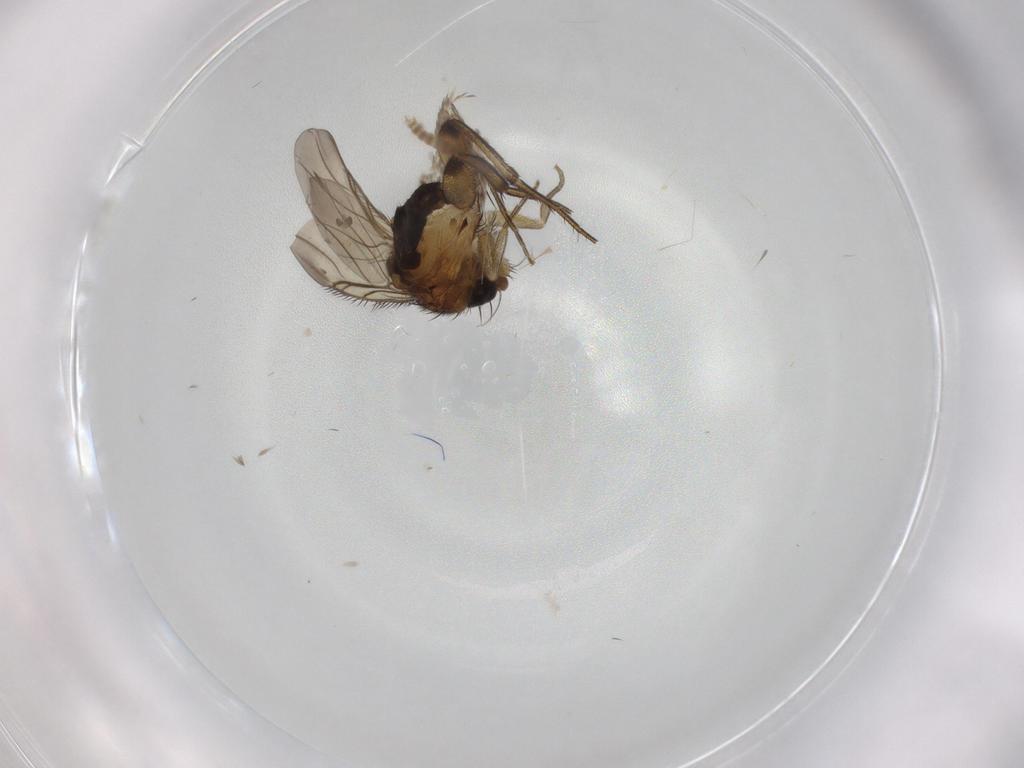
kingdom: Animalia
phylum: Arthropoda
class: Insecta
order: Diptera
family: Phoridae
